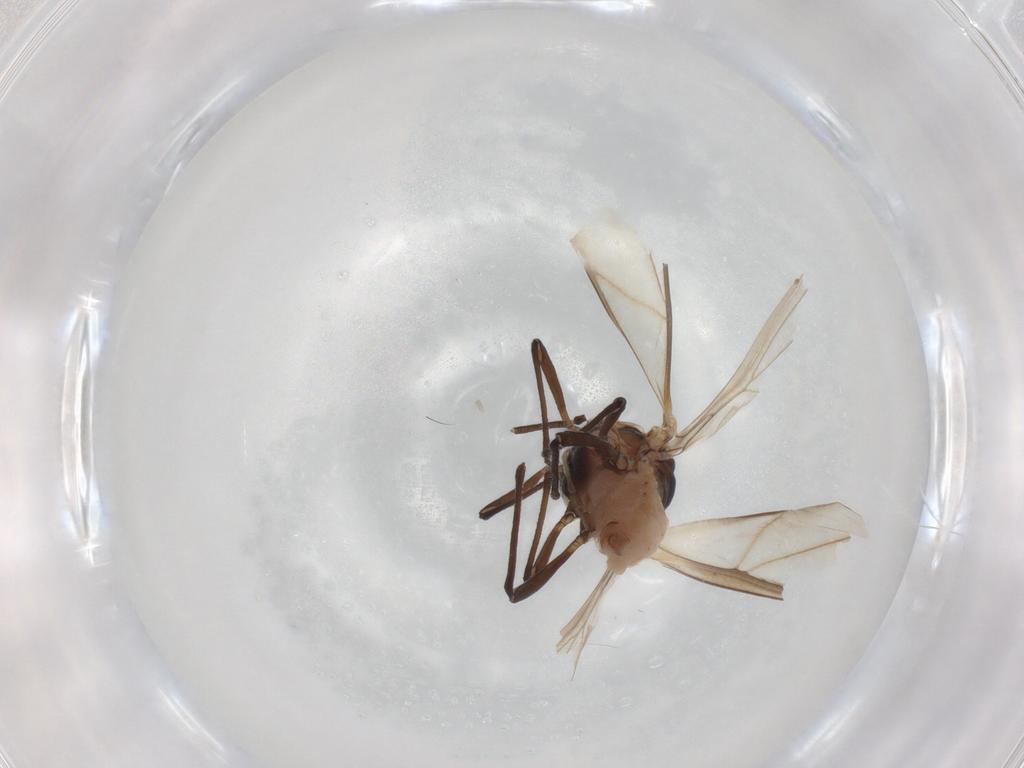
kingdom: Animalia
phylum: Arthropoda
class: Insecta
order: Hemiptera
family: Aphididae
